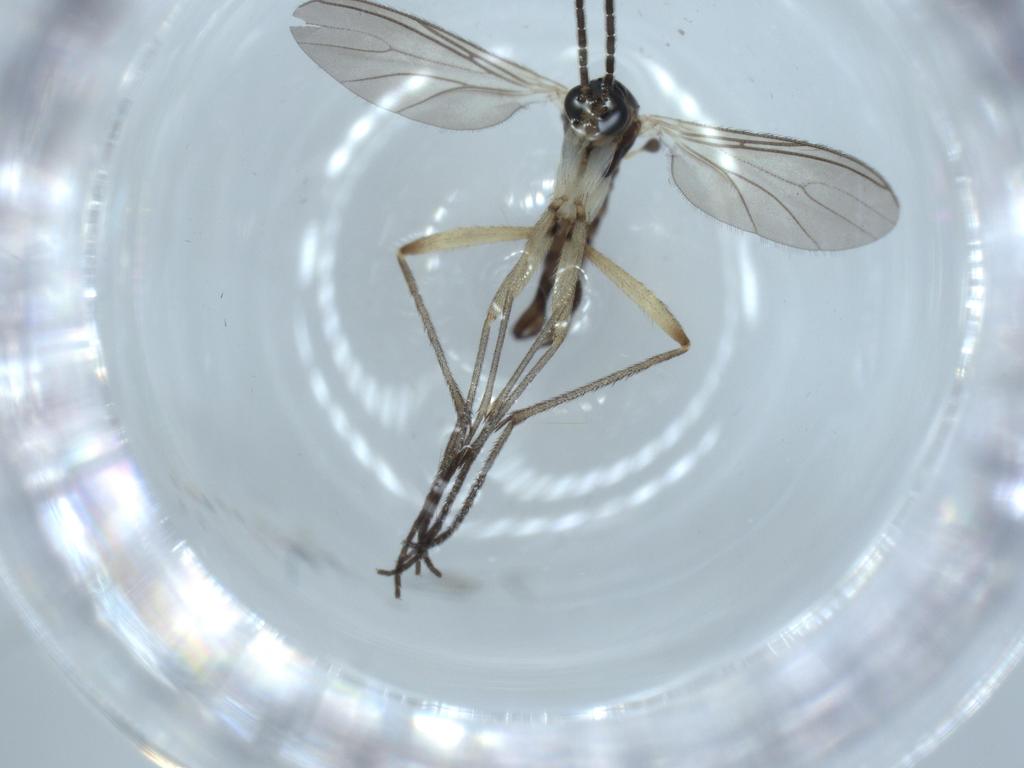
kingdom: Animalia
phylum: Arthropoda
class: Insecta
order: Diptera
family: Sciaridae
